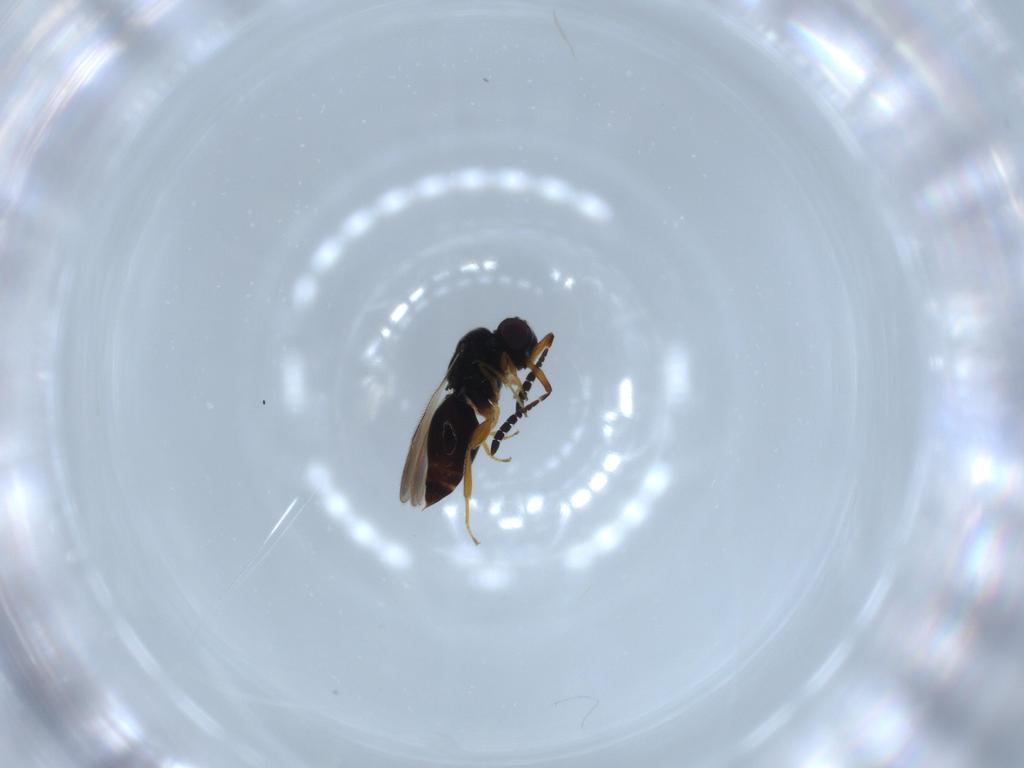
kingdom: Animalia
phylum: Arthropoda
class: Insecta
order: Hymenoptera
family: Ceraphronidae
